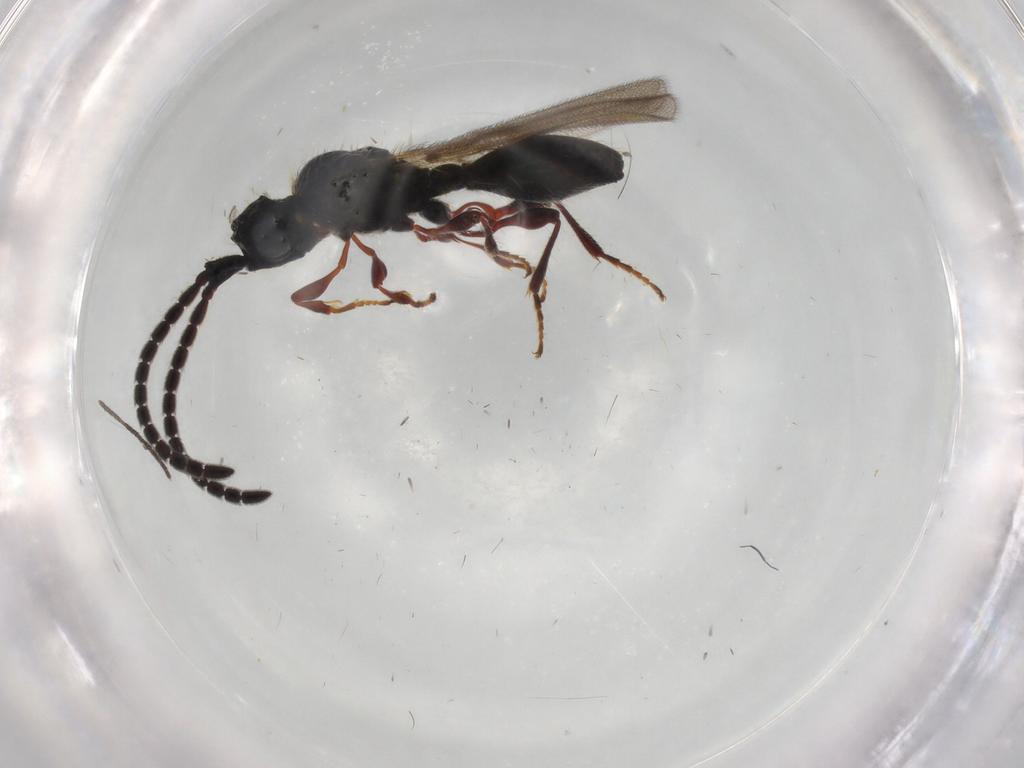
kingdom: Animalia
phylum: Arthropoda
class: Insecta
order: Hymenoptera
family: Diapriidae
